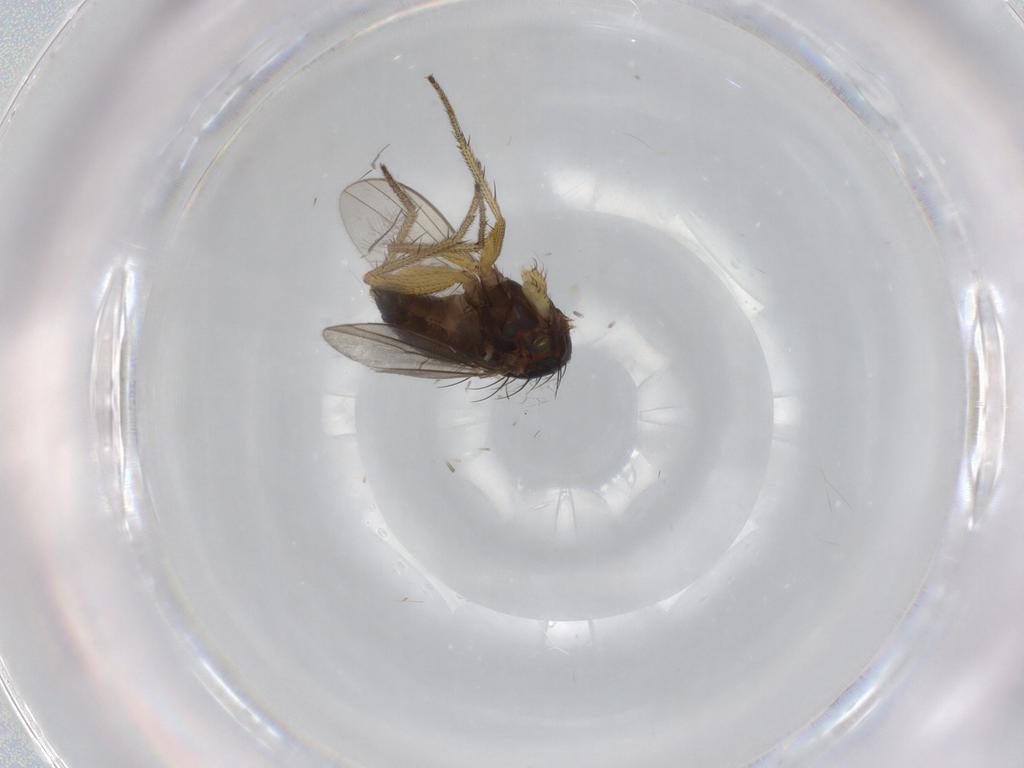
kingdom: Animalia
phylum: Arthropoda
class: Insecta
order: Diptera
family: Dolichopodidae
